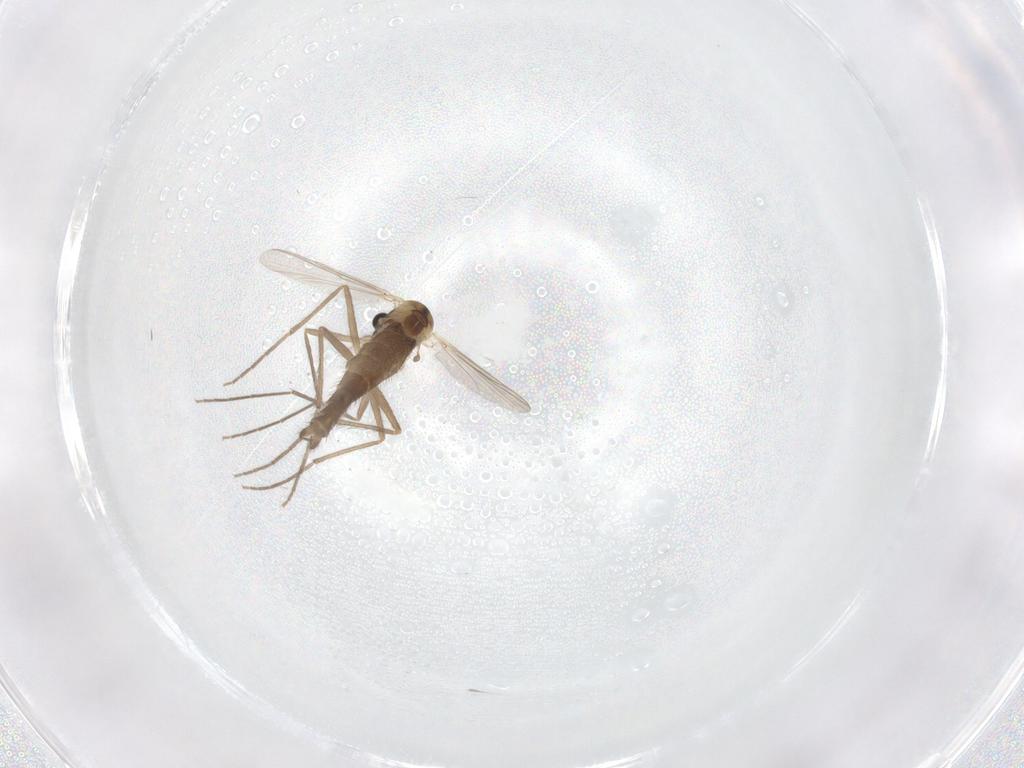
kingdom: Animalia
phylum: Arthropoda
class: Insecta
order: Diptera
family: Chironomidae
